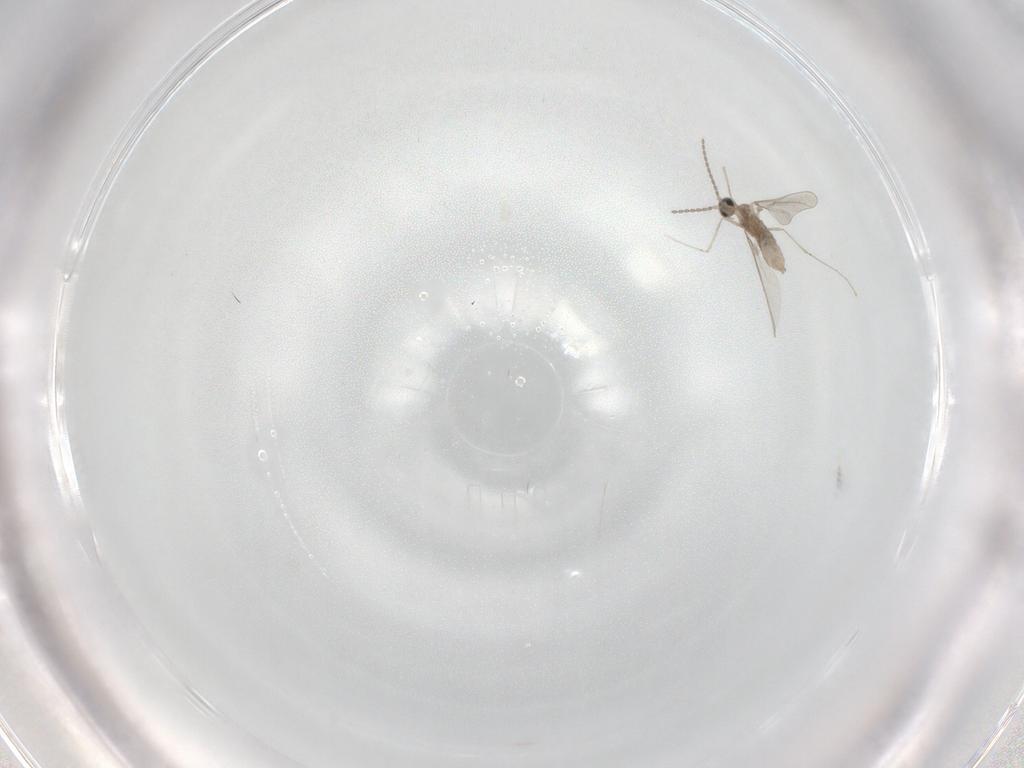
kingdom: Animalia
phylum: Arthropoda
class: Insecta
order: Diptera
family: Cecidomyiidae
